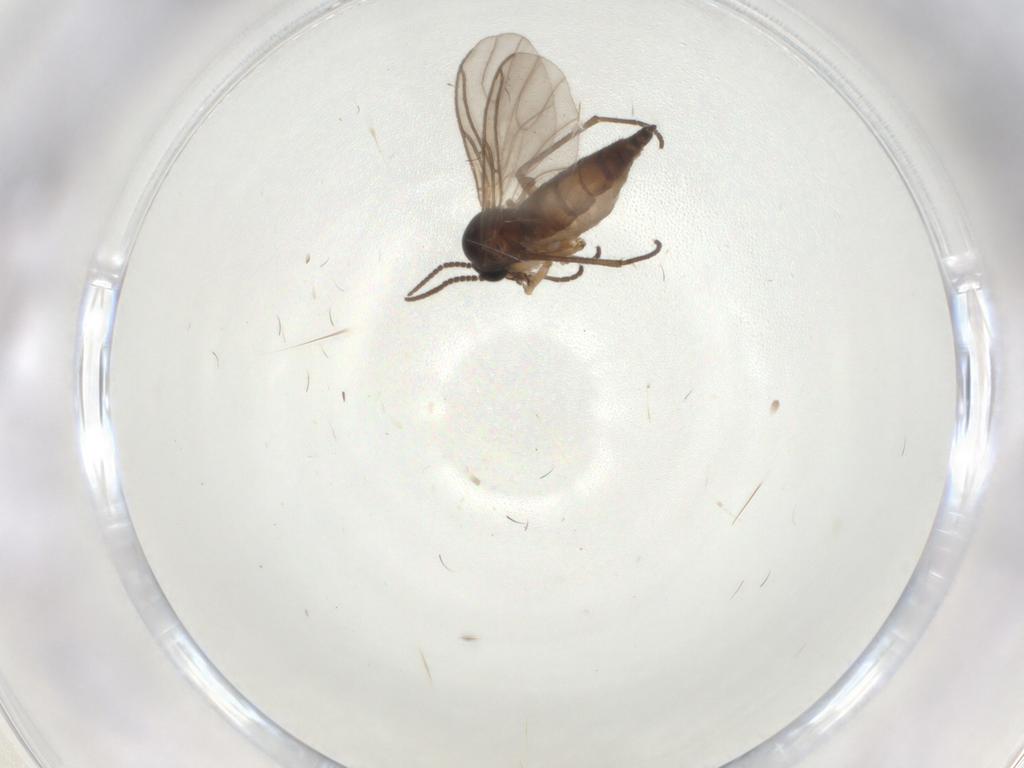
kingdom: Animalia
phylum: Arthropoda
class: Insecta
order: Diptera
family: Sciaridae
